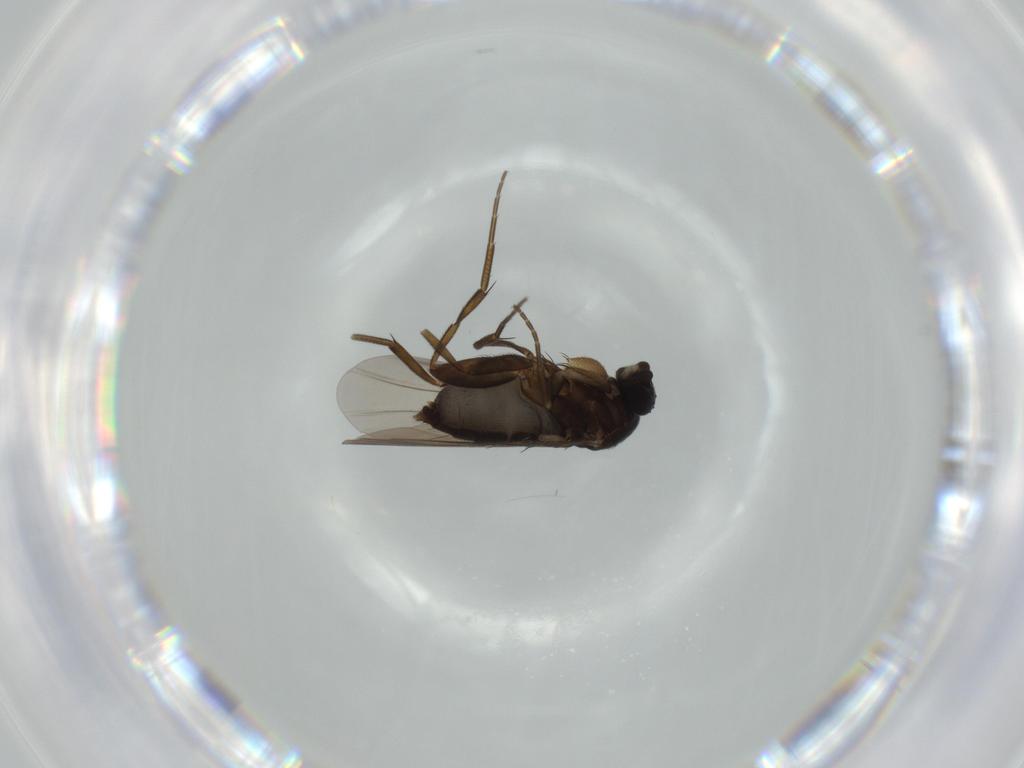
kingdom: Animalia
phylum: Arthropoda
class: Insecta
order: Diptera
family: Phoridae
